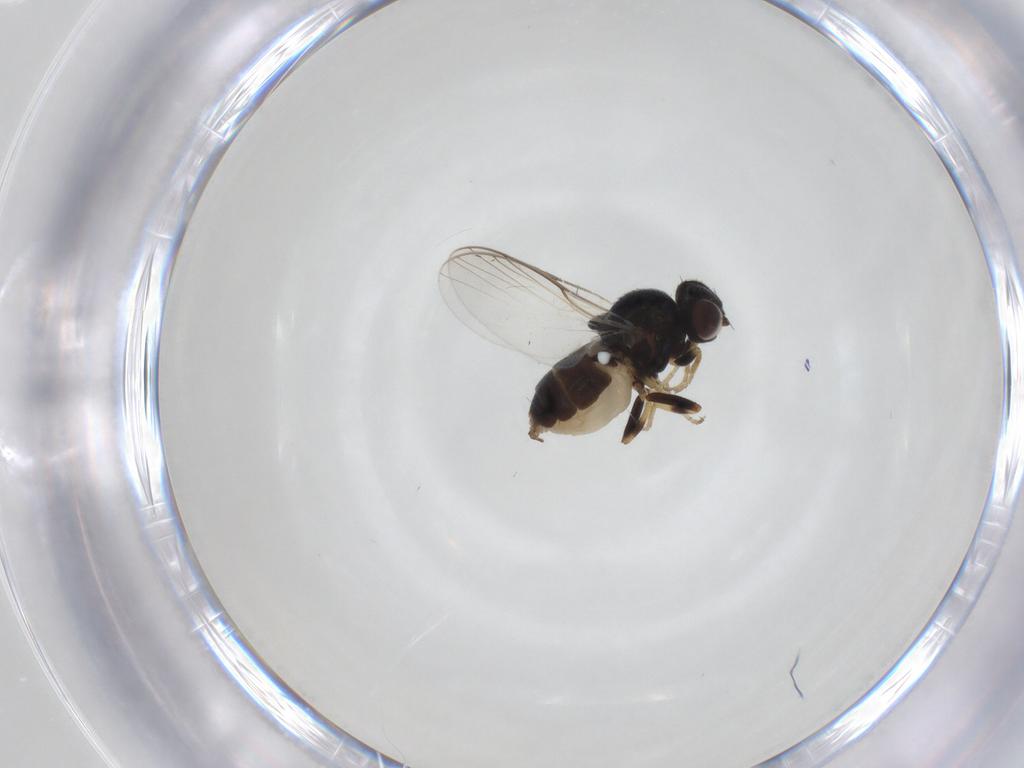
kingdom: Animalia
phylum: Arthropoda
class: Insecta
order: Diptera
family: Chloropidae
